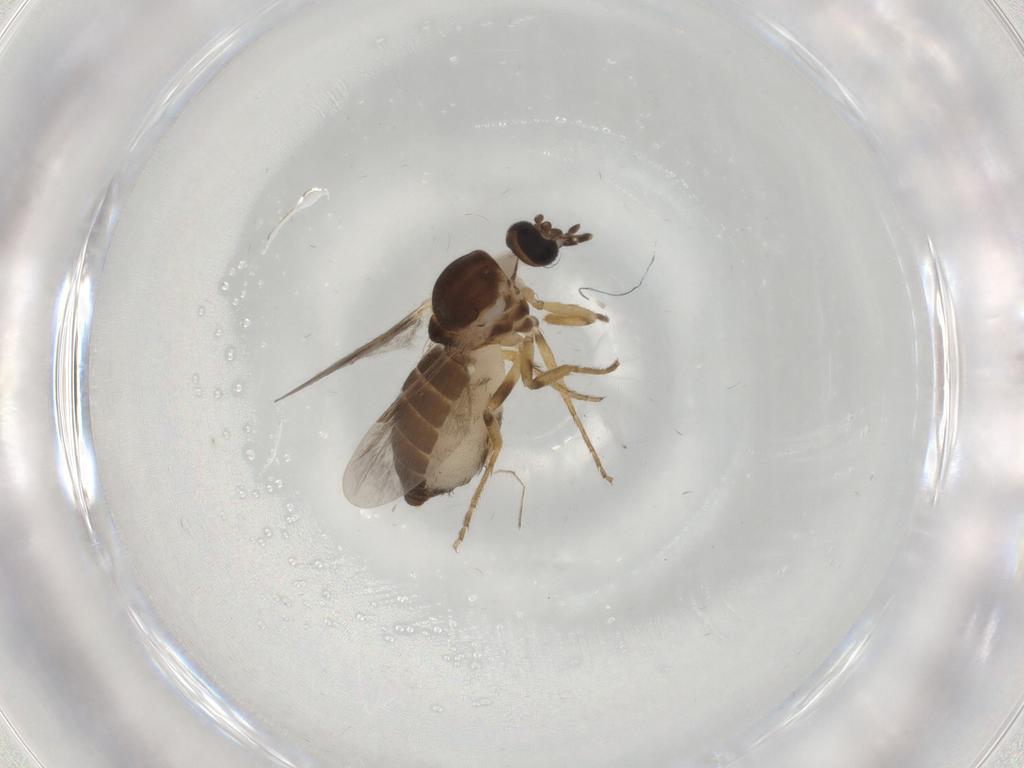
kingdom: Animalia
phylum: Arthropoda
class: Insecta
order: Diptera
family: Ceratopogonidae
